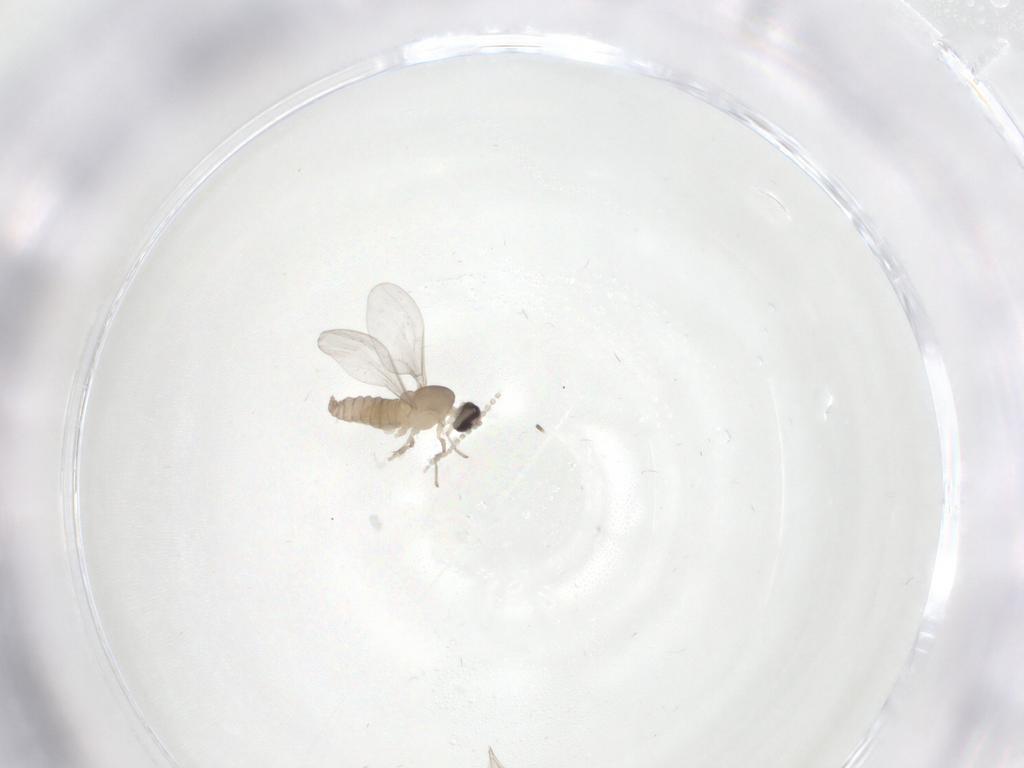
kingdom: Animalia
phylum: Arthropoda
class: Insecta
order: Diptera
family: Cecidomyiidae
